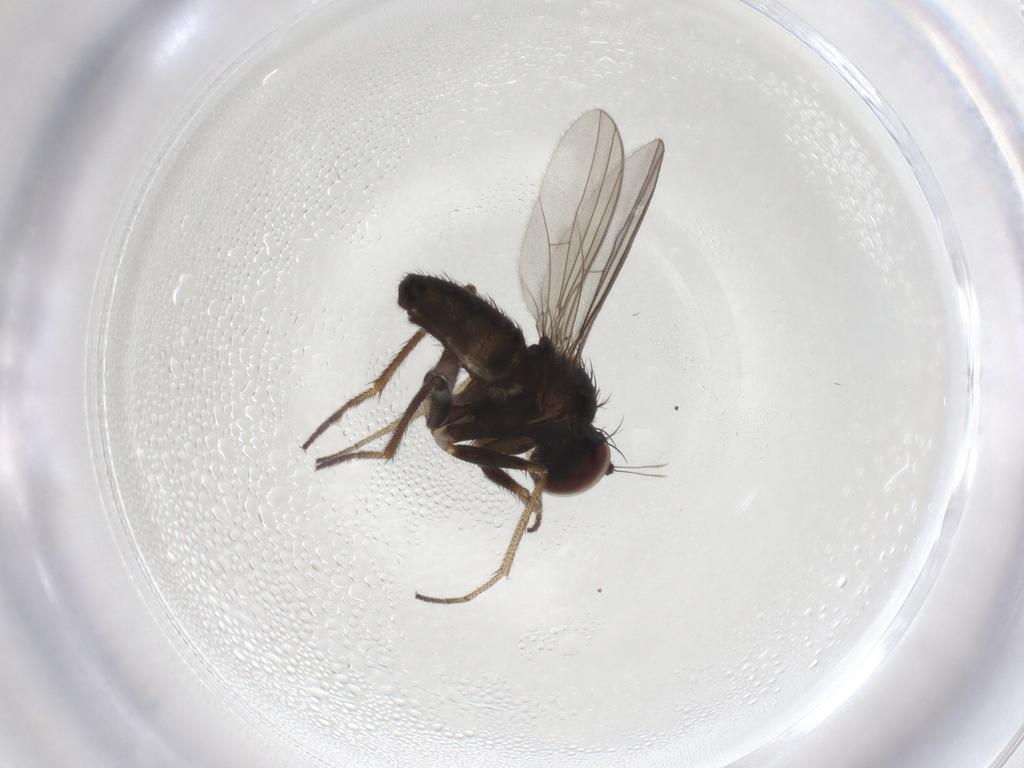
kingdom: Animalia
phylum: Arthropoda
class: Insecta
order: Diptera
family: Dolichopodidae
